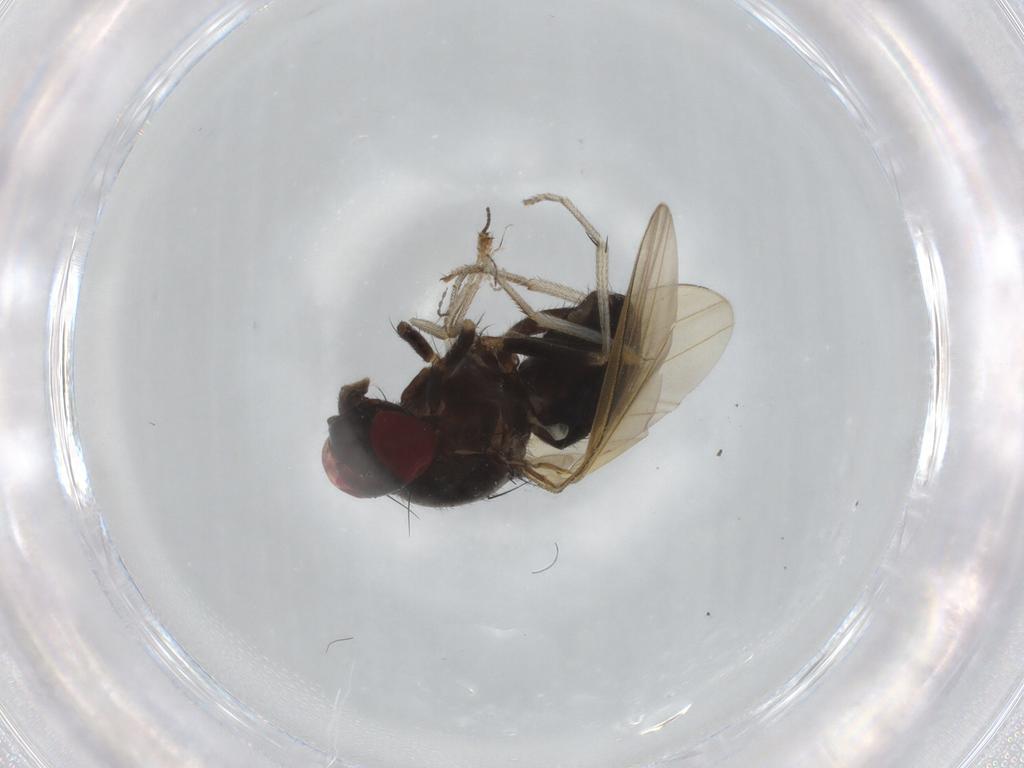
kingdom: Animalia
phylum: Arthropoda
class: Insecta
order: Diptera
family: Sciaridae
